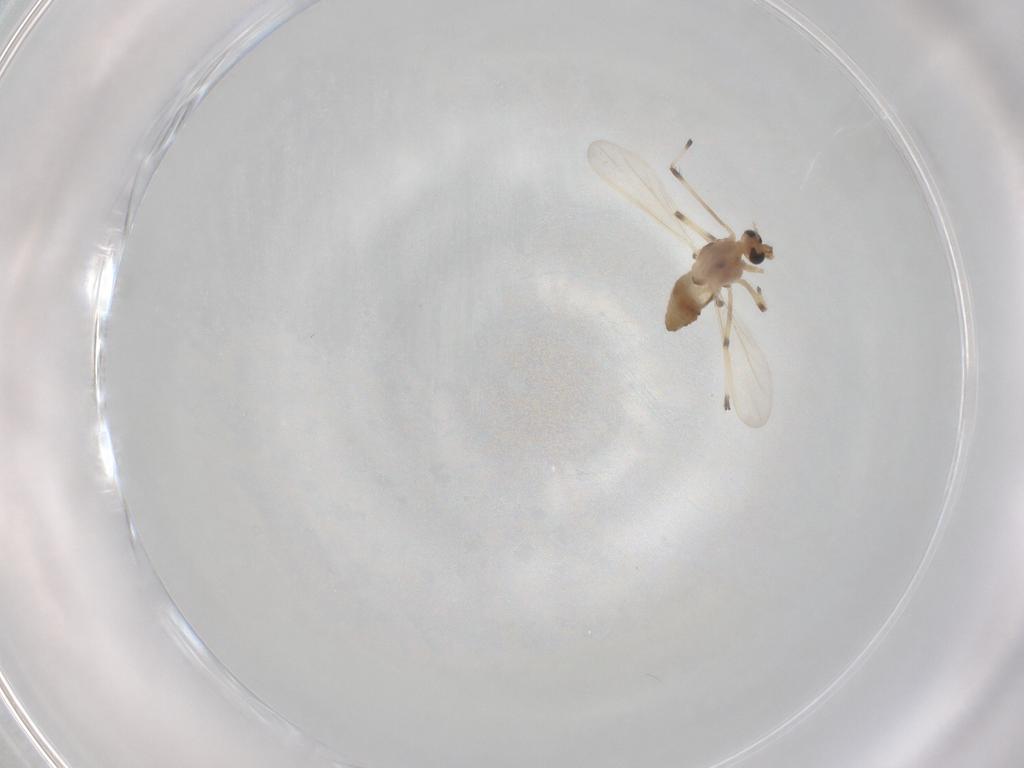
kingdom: Animalia
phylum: Arthropoda
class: Insecta
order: Diptera
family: Chironomidae
